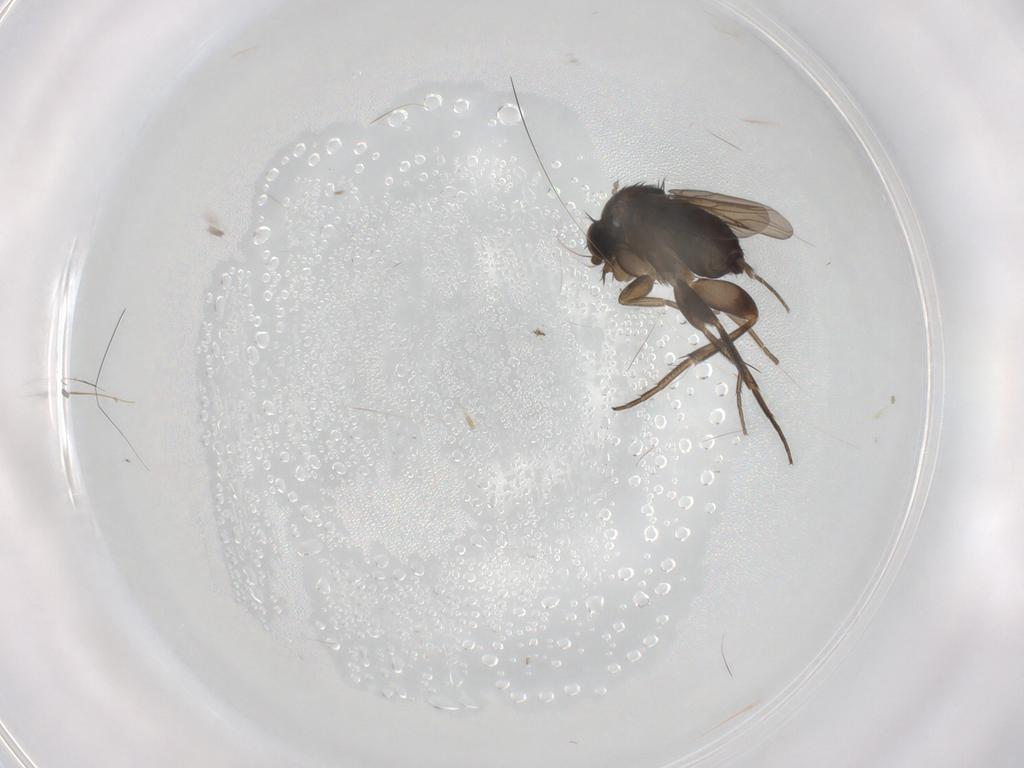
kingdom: Animalia
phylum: Arthropoda
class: Insecta
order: Diptera
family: Phoridae
